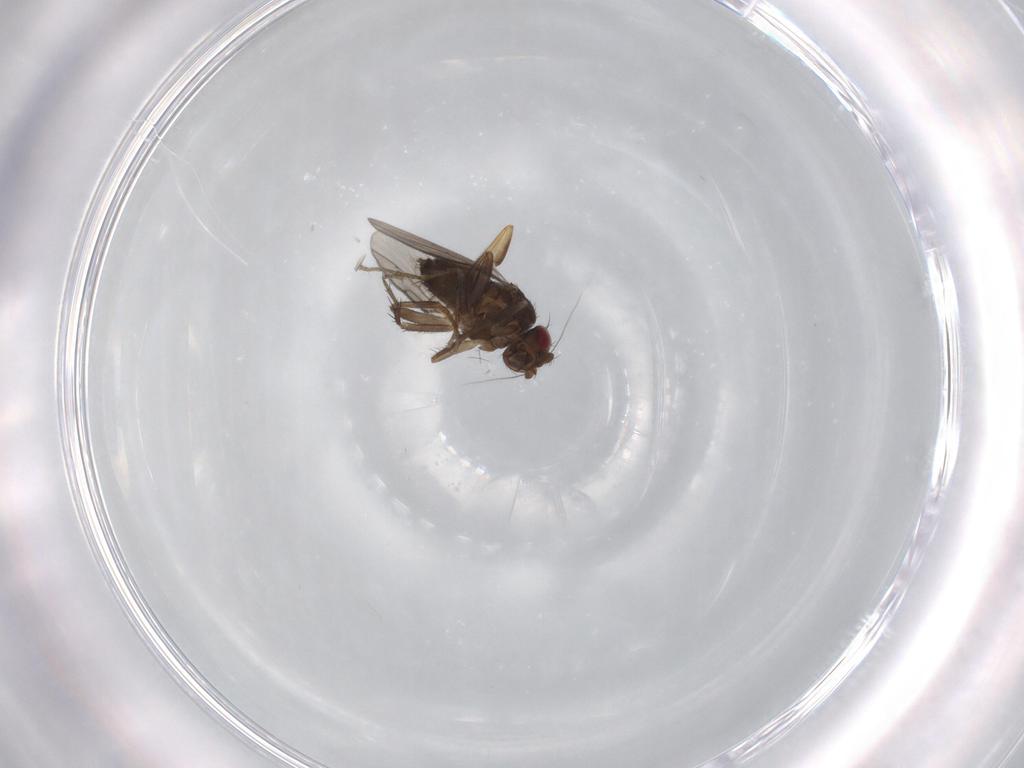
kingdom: Animalia
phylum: Arthropoda
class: Insecta
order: Diptera
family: Sphaeroceridae
